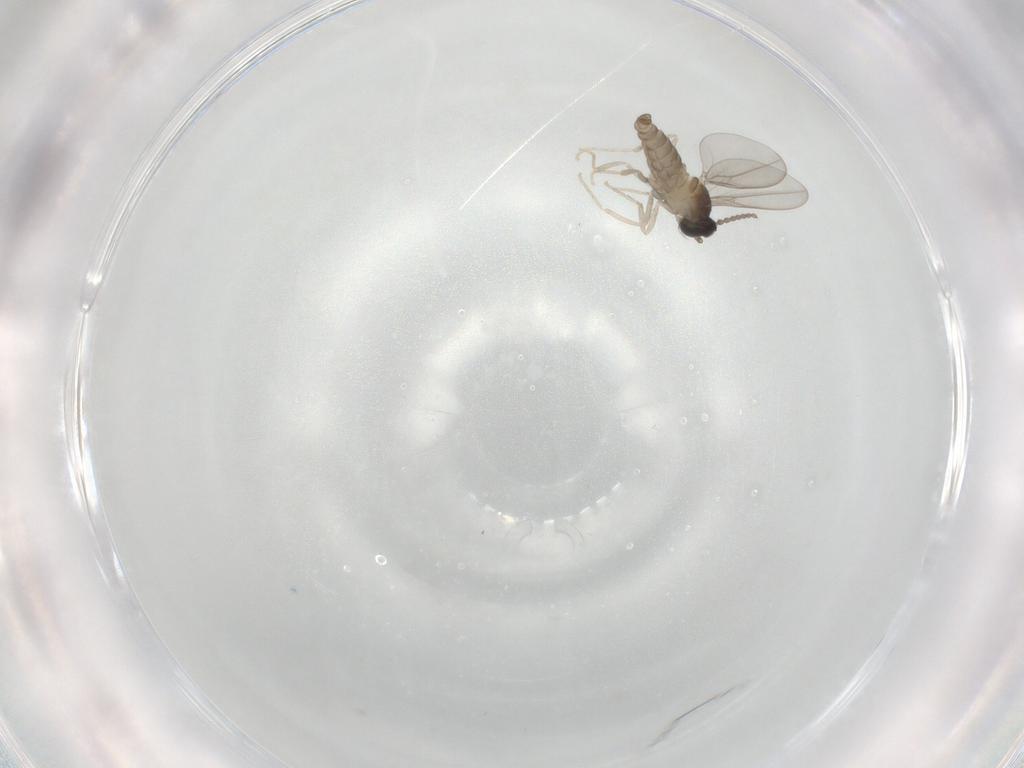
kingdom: Animalia
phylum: Arthropoda
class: Insecta
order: Diptera
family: Cecidomyiidae
